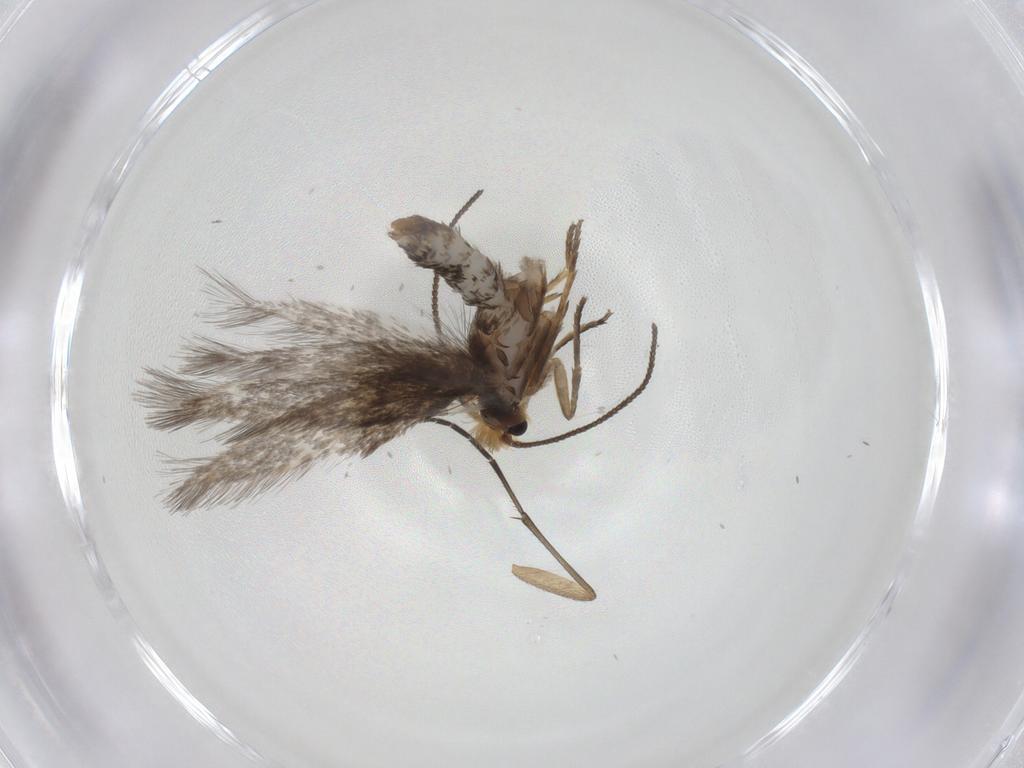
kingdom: Animalia
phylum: Arthropoda
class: Insecta
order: Lepidoptera
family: Nepticulidae
